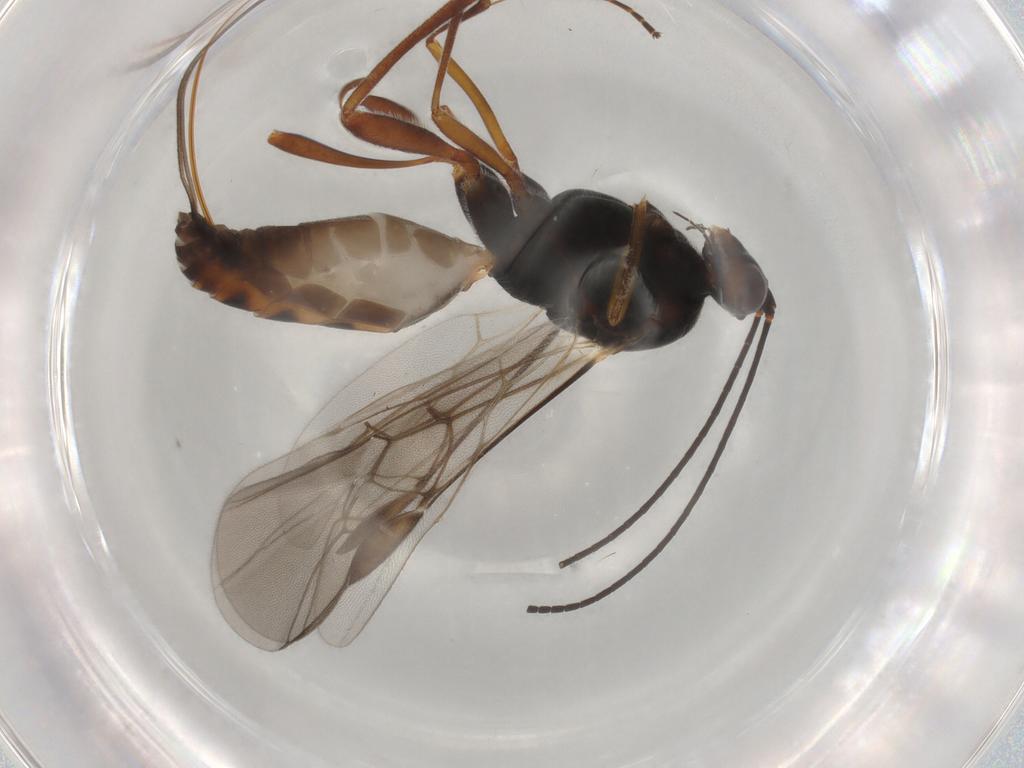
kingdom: Animalia
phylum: Arthropoda
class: Insecta
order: Hymenoptera
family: Braconidae
